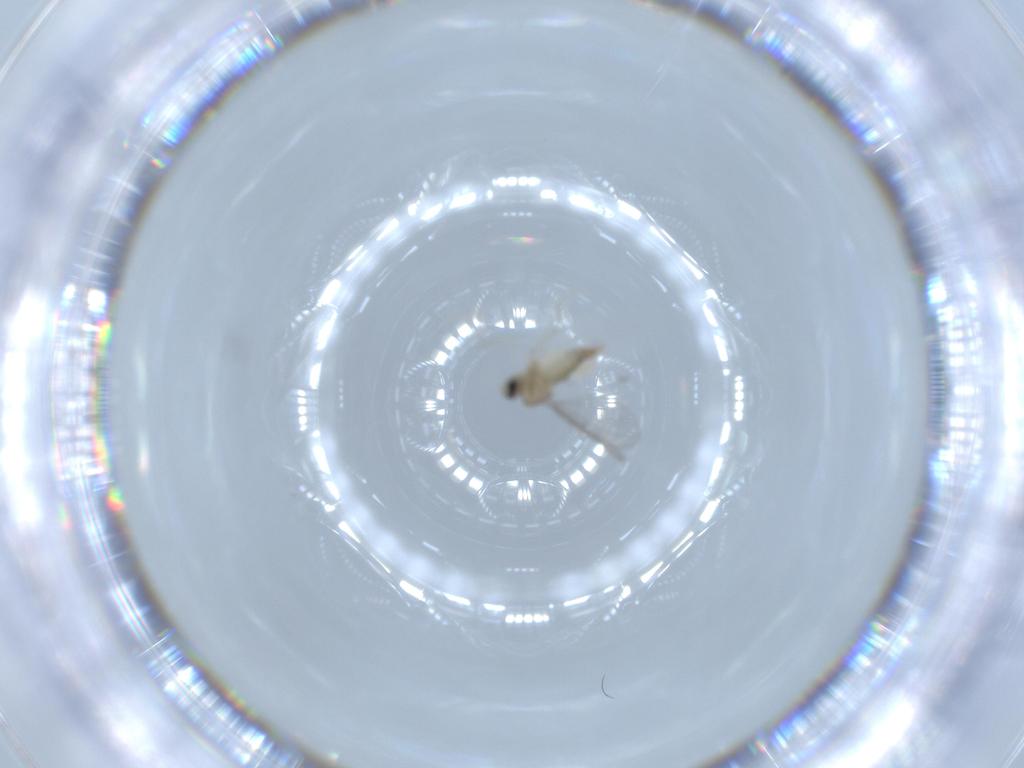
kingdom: Animalia
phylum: Arthropoda
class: Insecta
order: Diptera
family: Cecidomyiidae
